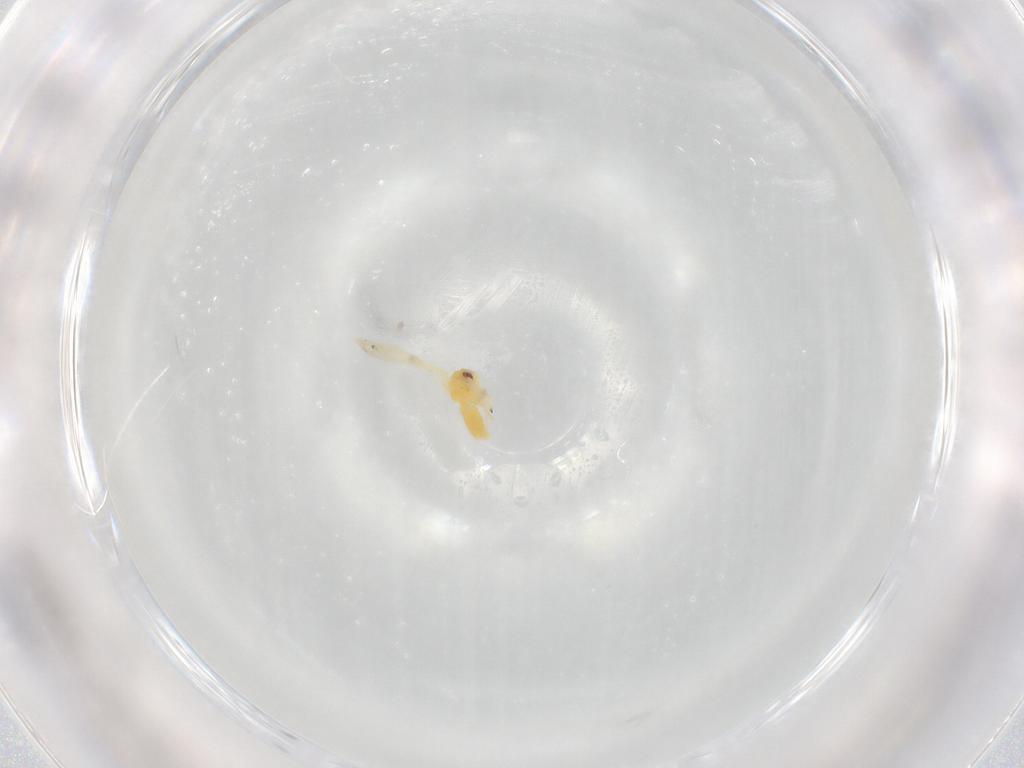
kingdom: Animalia
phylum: Arthropoda
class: Insecta
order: Hemiptera
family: Aleyrodidae
